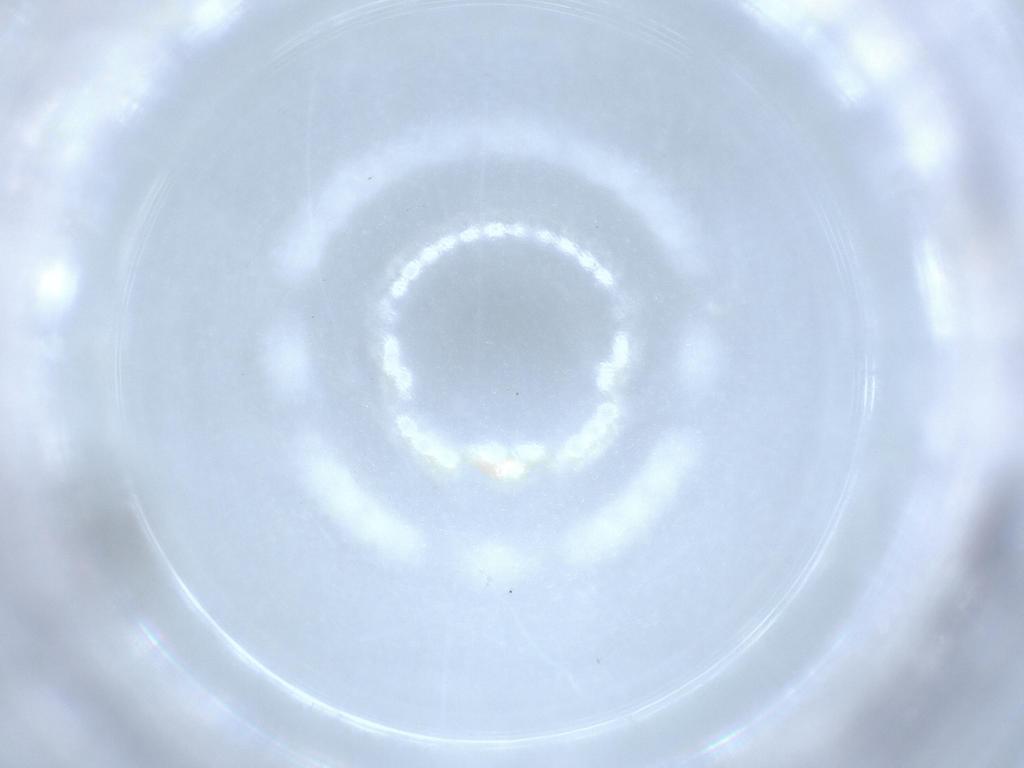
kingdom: Animalia
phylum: Arthropoda
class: Insecta
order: Hymenoptera
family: Scelionidae
